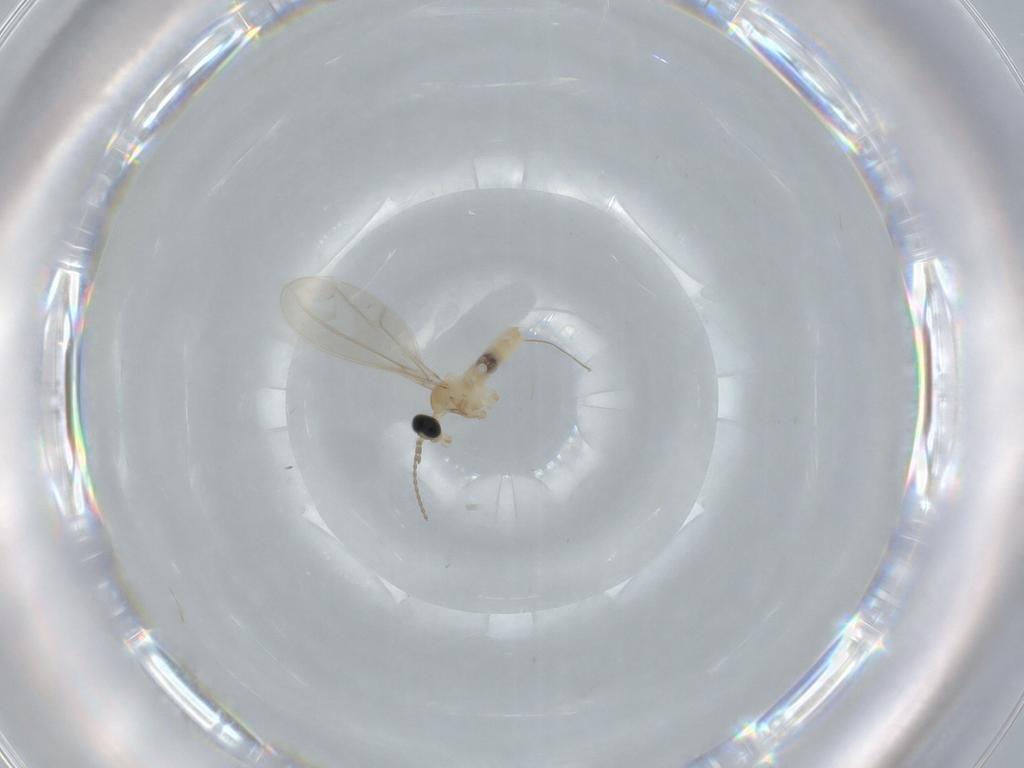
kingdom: Animalia
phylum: Arthropoda
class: Insecta
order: Diptera
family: Cecidomyiidae
